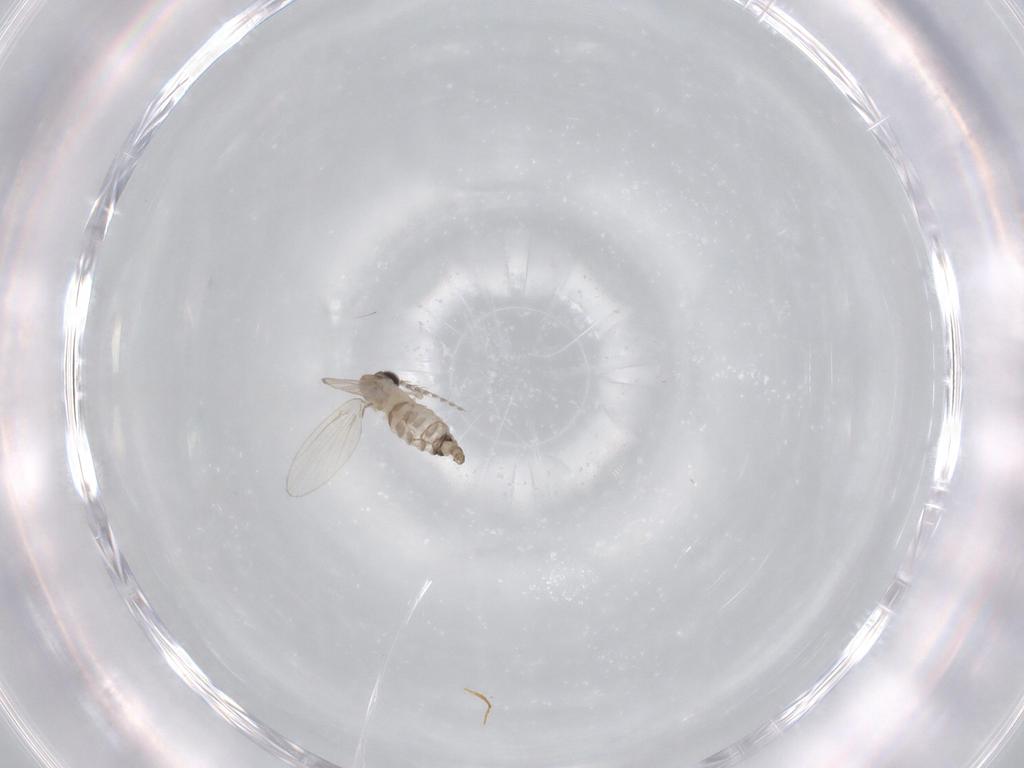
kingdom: Animalia
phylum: Arthropoda
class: Insecta
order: Diptera
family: Psychodidae
